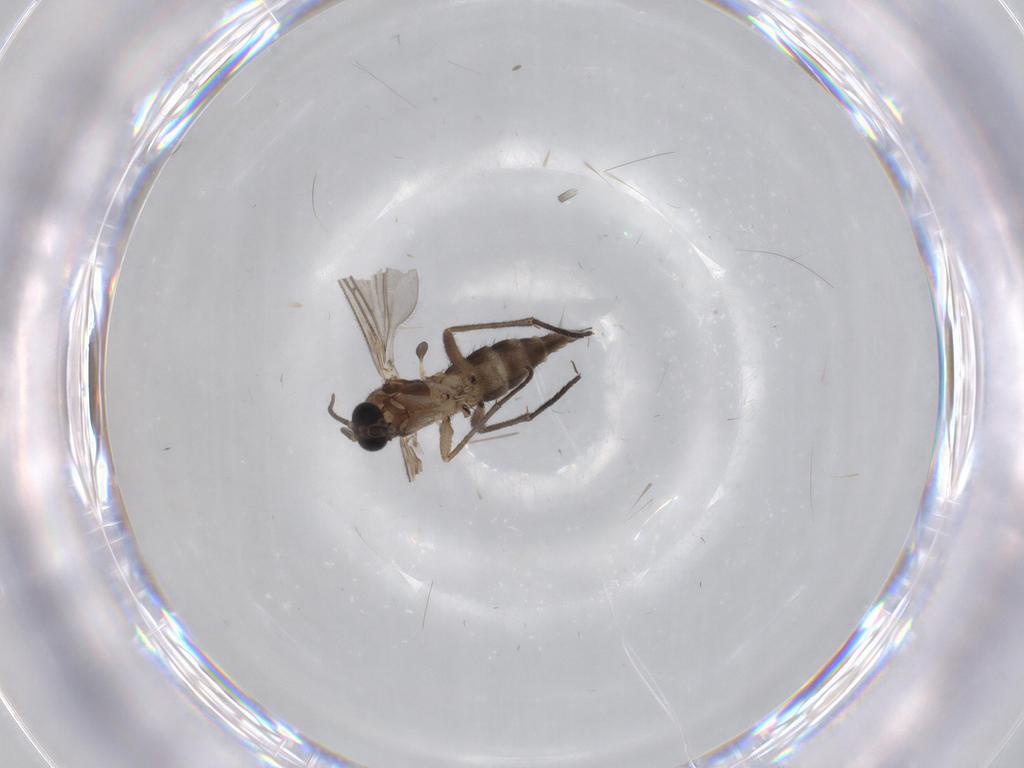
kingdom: Animalia
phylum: Arthropoda
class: Insecta
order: Diptera
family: Sciaridae
